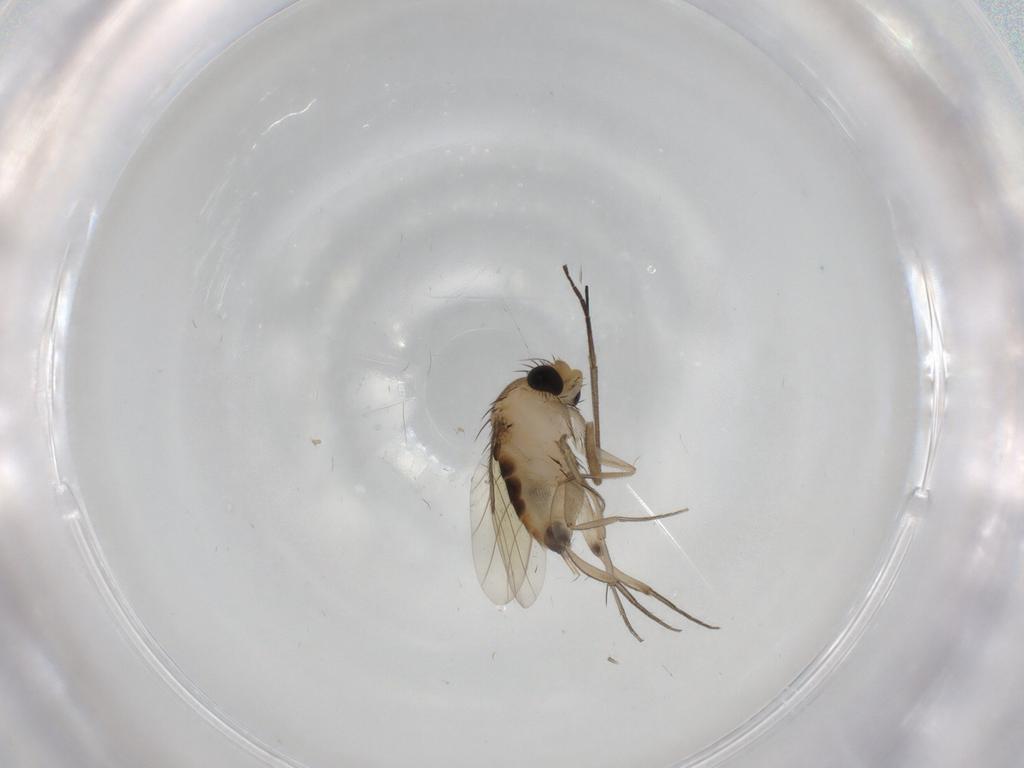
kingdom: Animalia
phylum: Arthropoda
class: Insecta
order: Diptera
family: Phoridae
